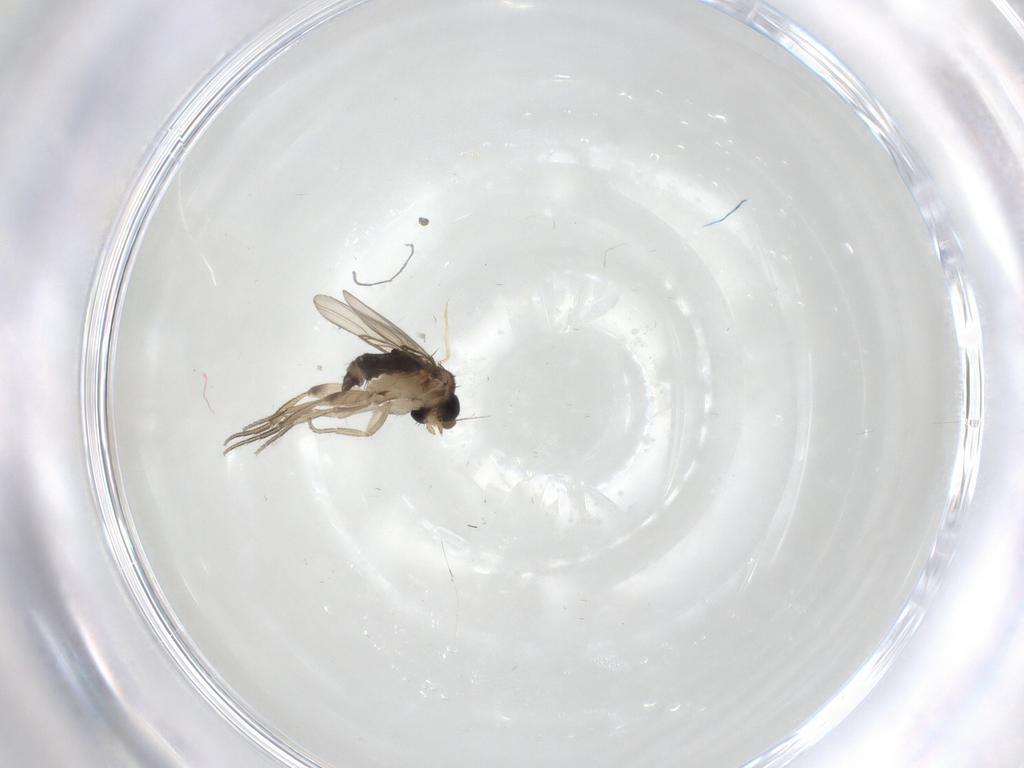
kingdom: Animalia
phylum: Arthropoda
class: Insecta
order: Diptera
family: Phoridae
